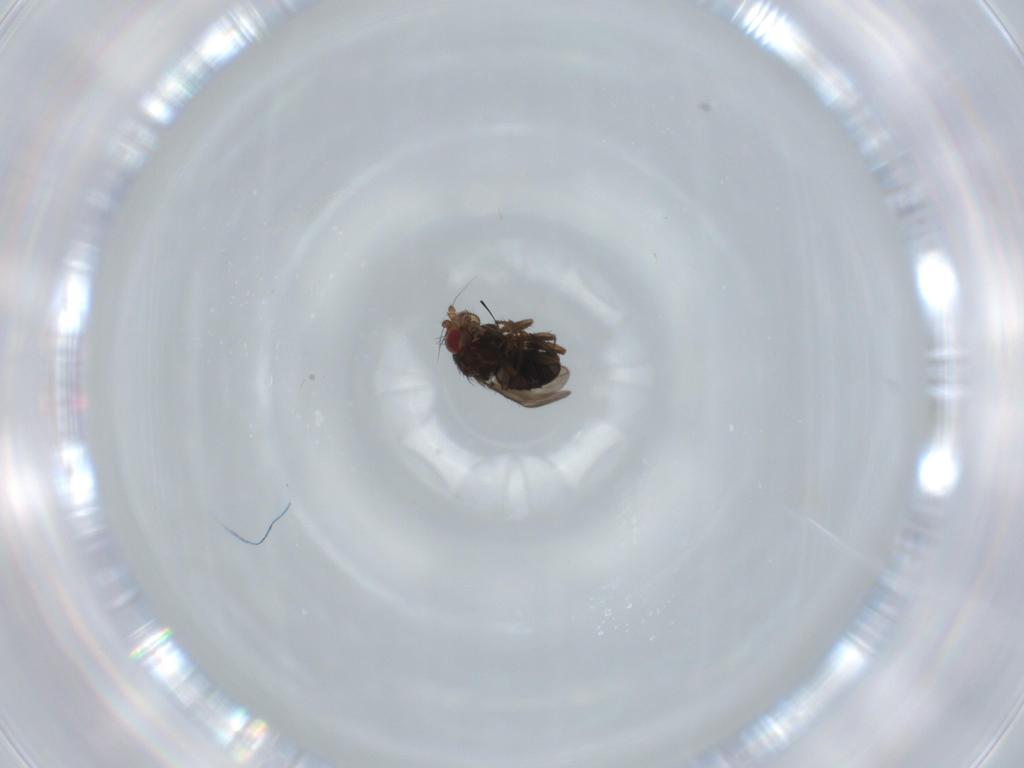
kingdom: Animalia
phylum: Arthropoda
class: Insecta
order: Diptera
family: Sphaeroceridae
